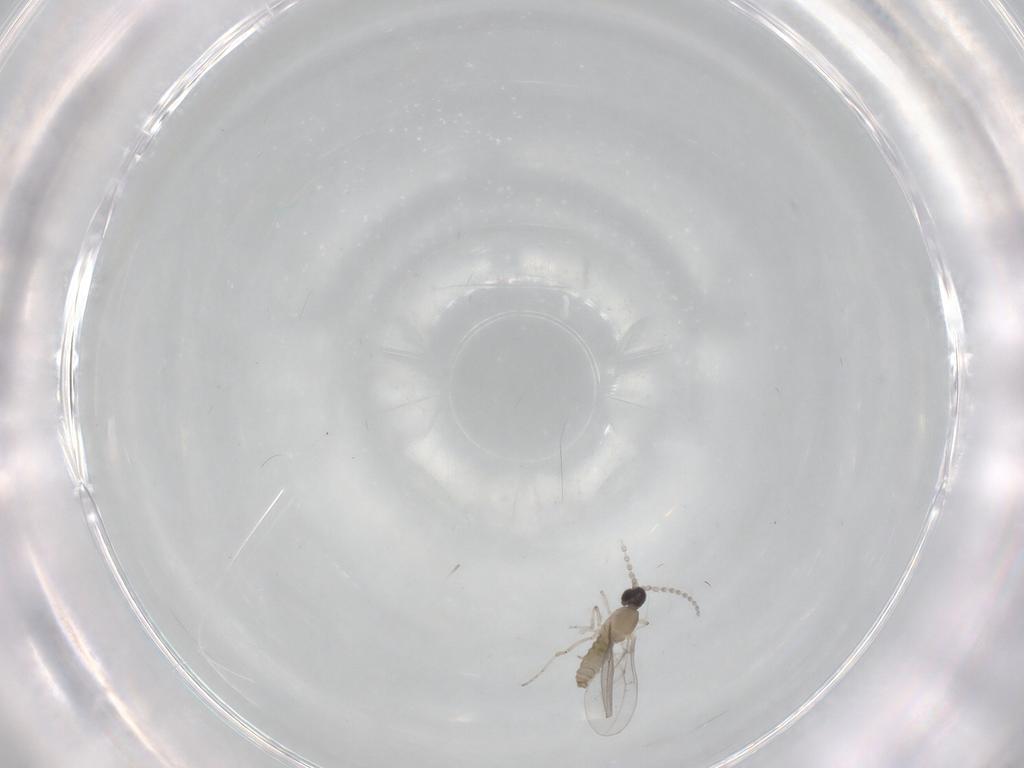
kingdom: Animalia
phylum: Arthropoda
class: Insecta
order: Diptera
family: Cecidomyiidae
